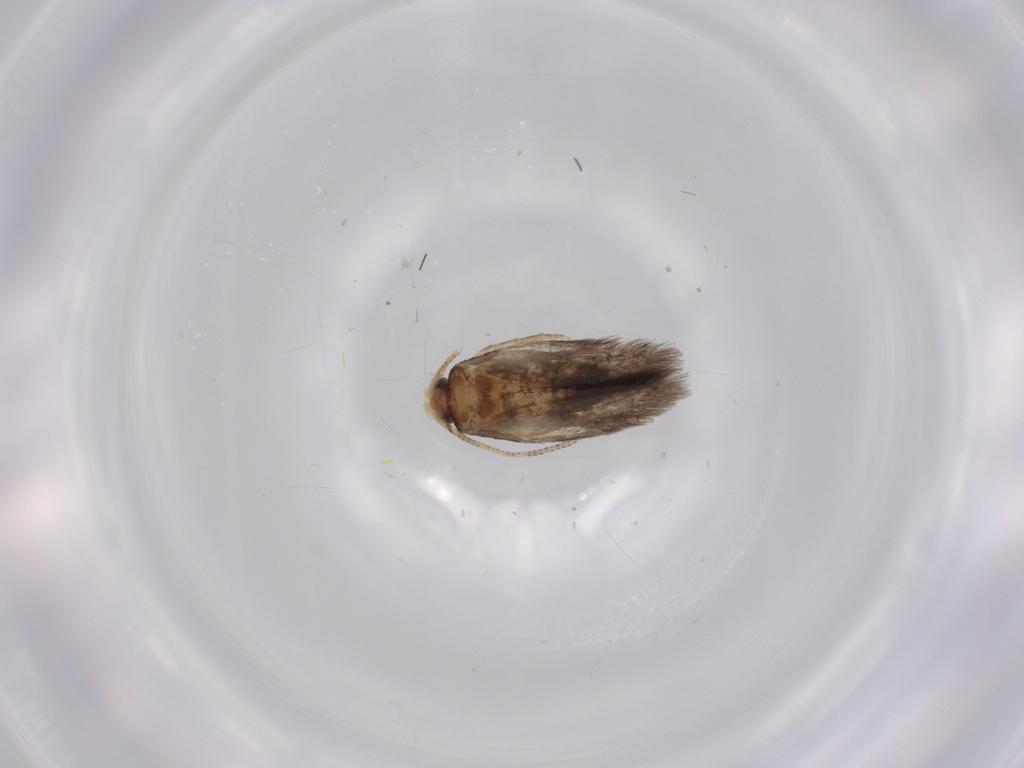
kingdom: Animalia
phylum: Arthropoda
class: Insecta
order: Lepidoptera
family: Nepticulidae
